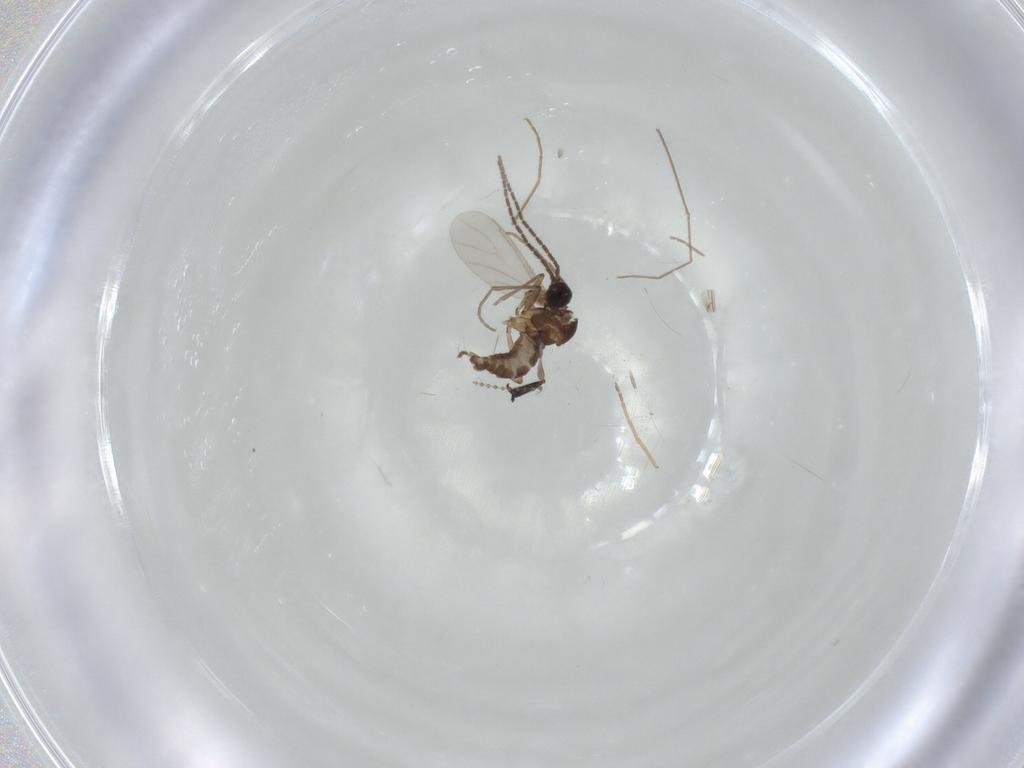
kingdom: Animalia
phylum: Arthropoda
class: Insecta
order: Diptera
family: Sciaridae
